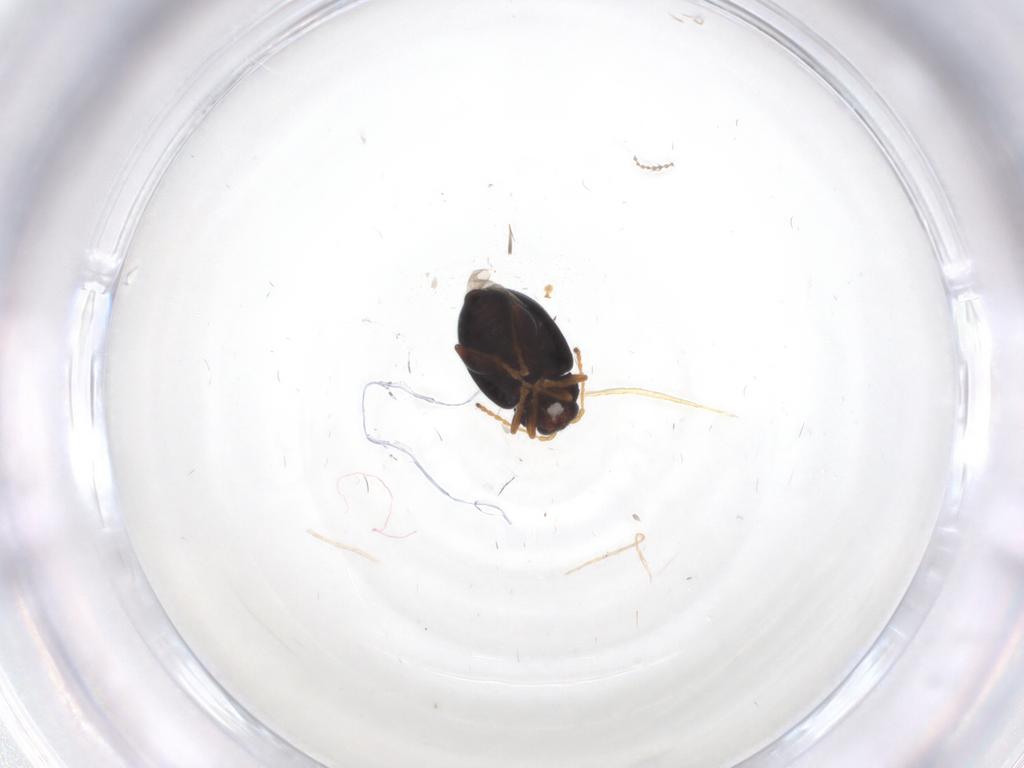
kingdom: Animalia
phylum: Arthropoda
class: Insecta
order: Coleoptera
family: Chrysomelidae
